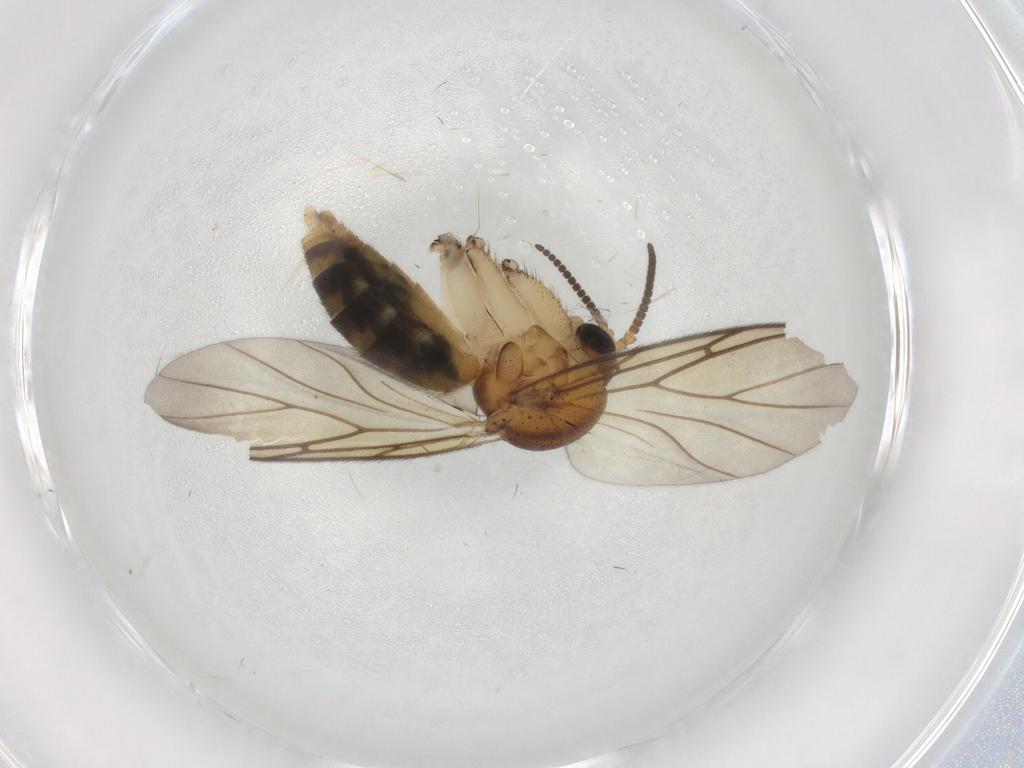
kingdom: Animalia
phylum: Arthropoda
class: Insecta
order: Diptera
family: Mycetophilidae
